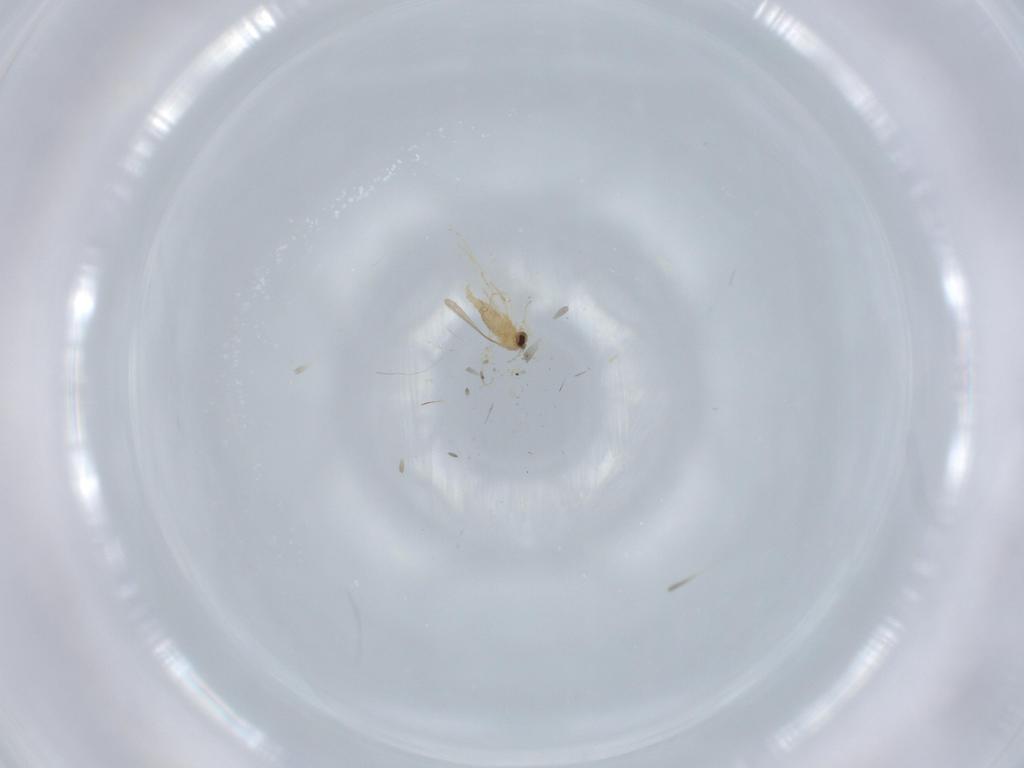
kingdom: Animalia
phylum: Arthropoda
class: Insecta
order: Diptera
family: Cecidomyiidae
